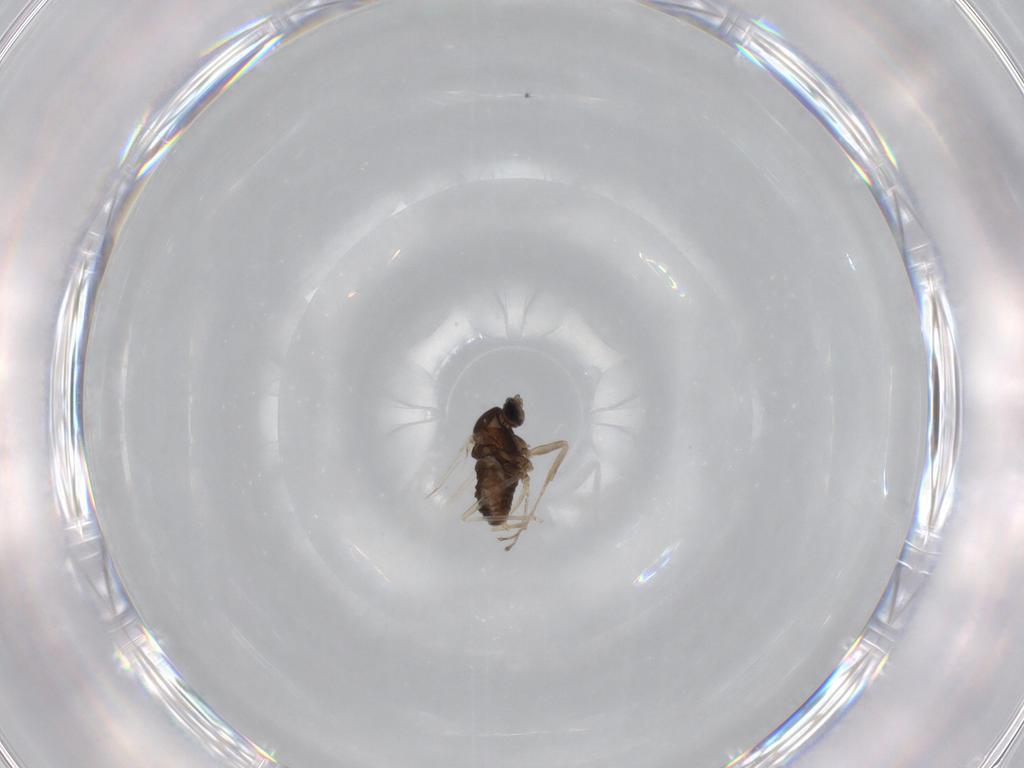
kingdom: Animalia
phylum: Arthropoda
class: Insecta
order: Diptera
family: Cecidomyiidae
